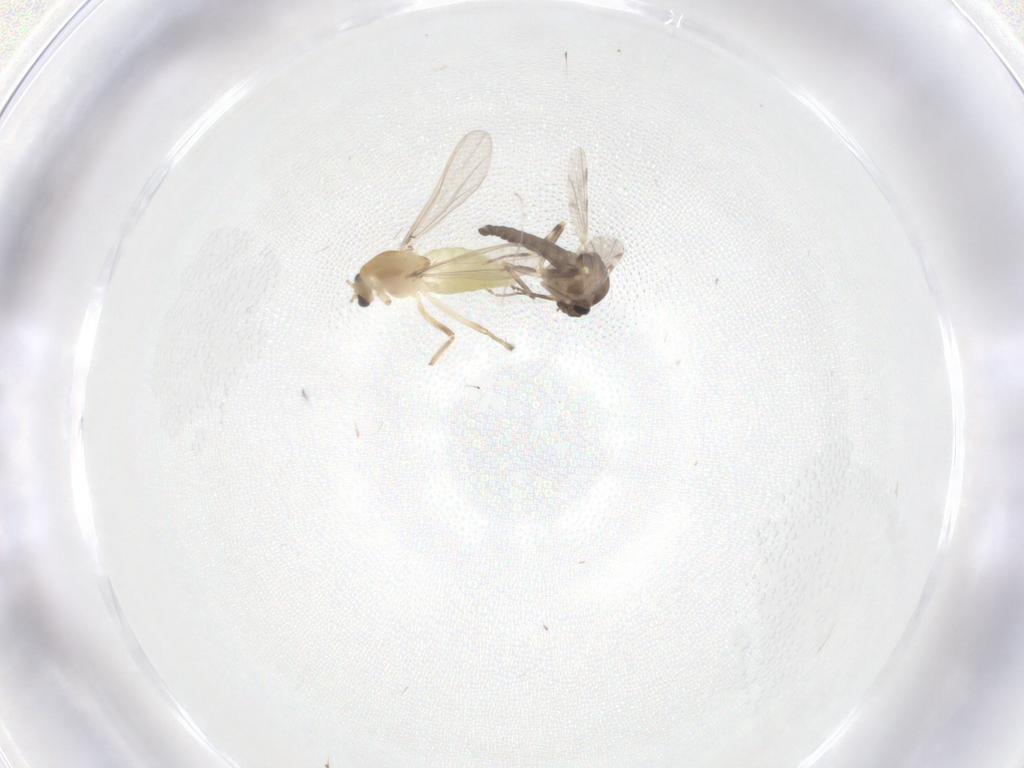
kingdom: Animalia
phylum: Arthropoda
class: Insecta
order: Diptera
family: Chironomidae
